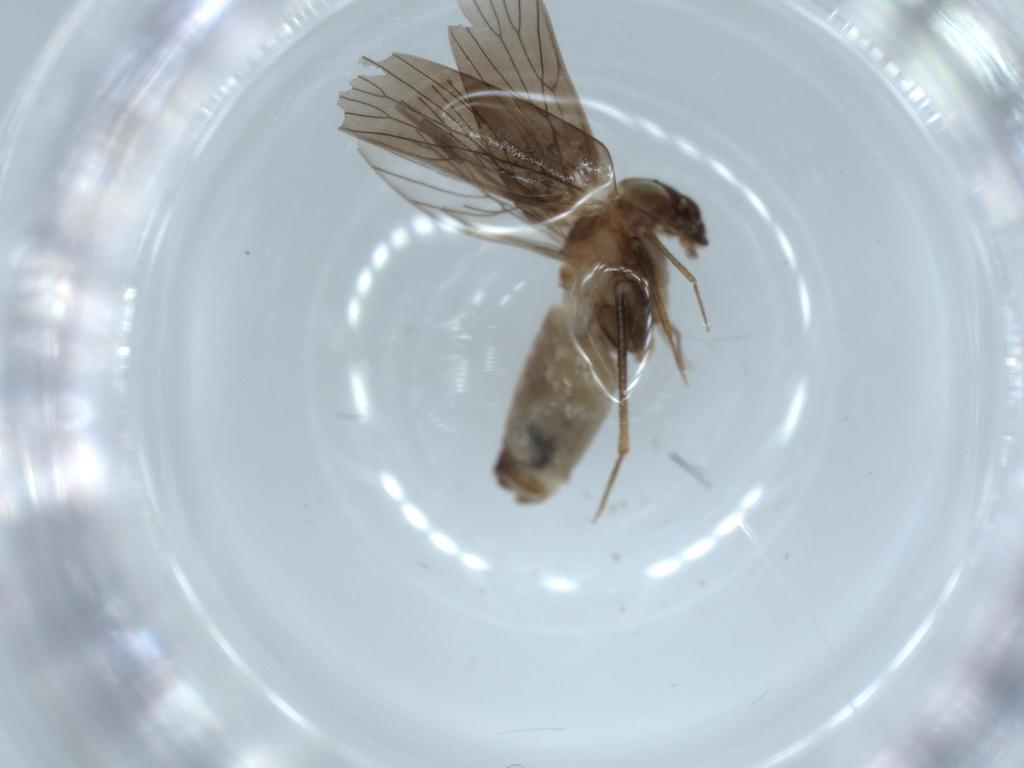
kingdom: Animalia
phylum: Arthropoda
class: Insecta
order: Psocodea
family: Lepidopsocidae
